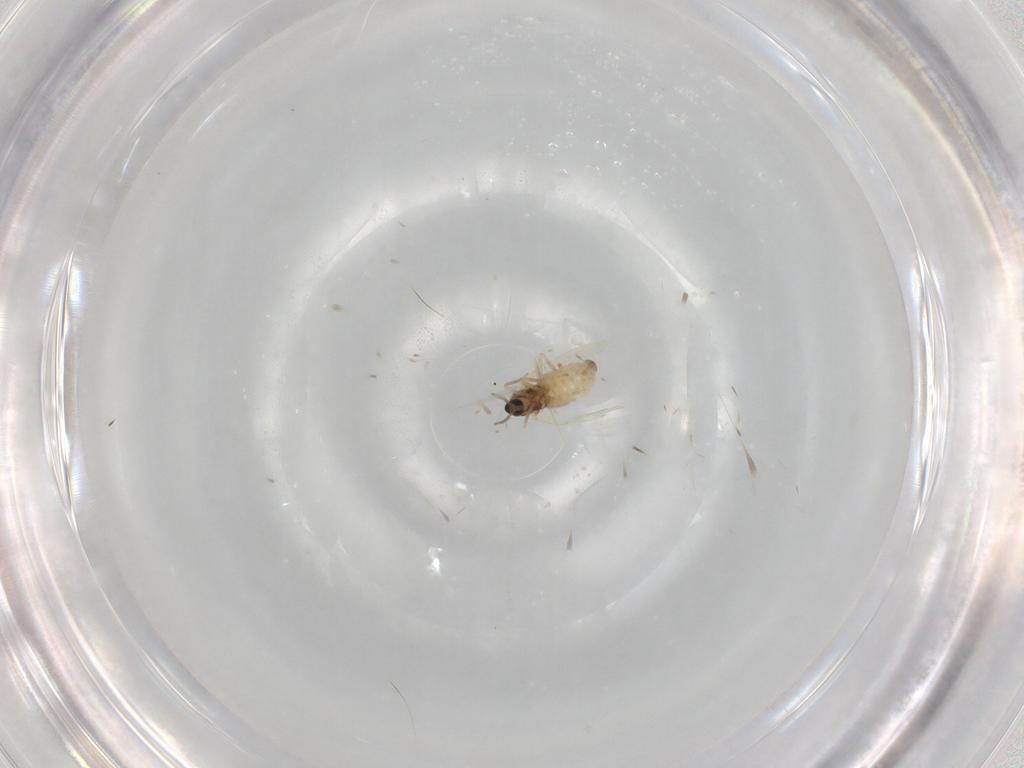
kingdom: Animalia
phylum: Arthropoda
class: Insecta
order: Diptera
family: Cecidomyiidae
